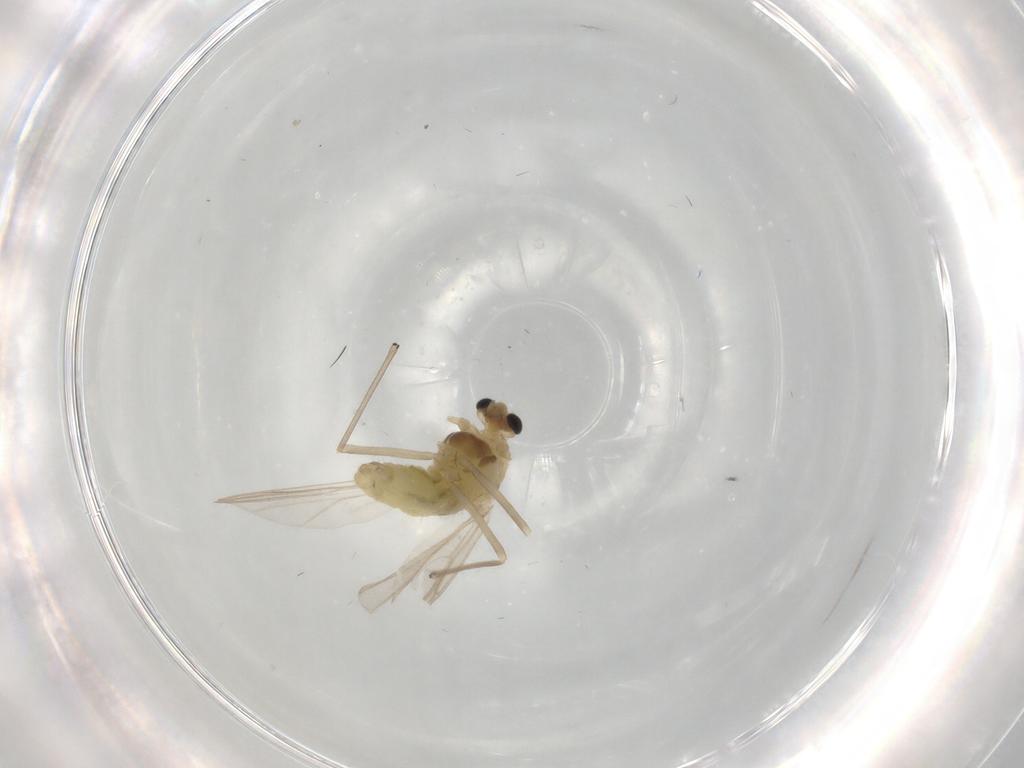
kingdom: Animalia
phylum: Arthropoda
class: Insecta
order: Diptera
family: Chironomidae
